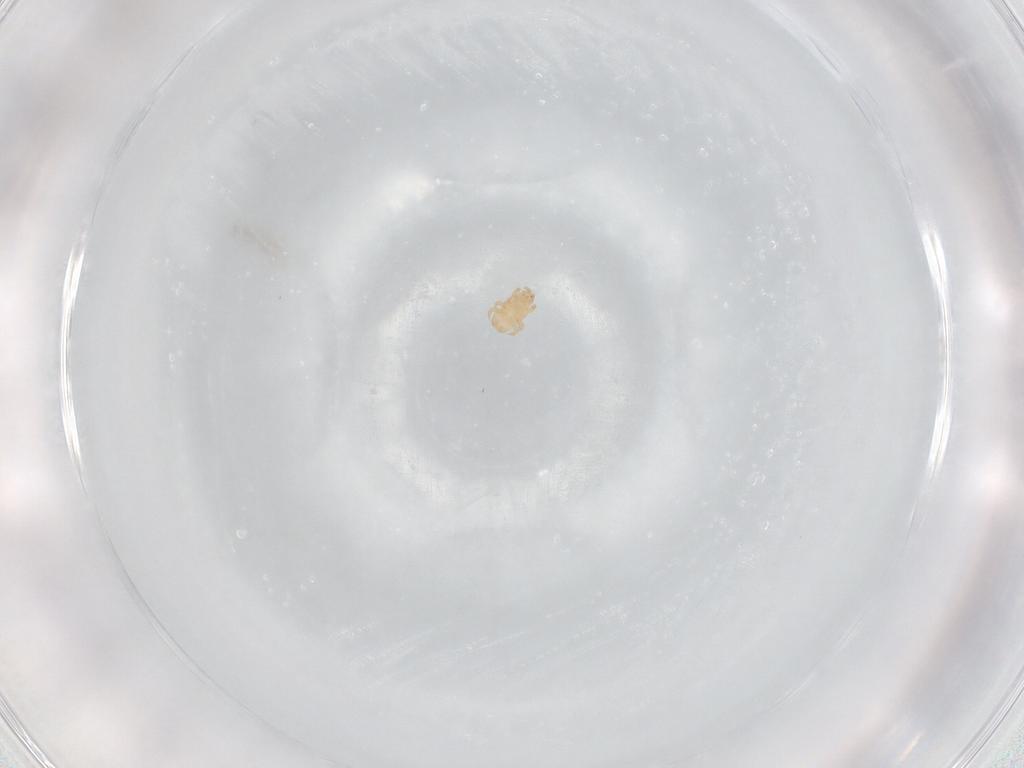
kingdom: Animalia
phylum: Arthropoda
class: Arachnida
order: Mesostigmata
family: Digamasellidae
